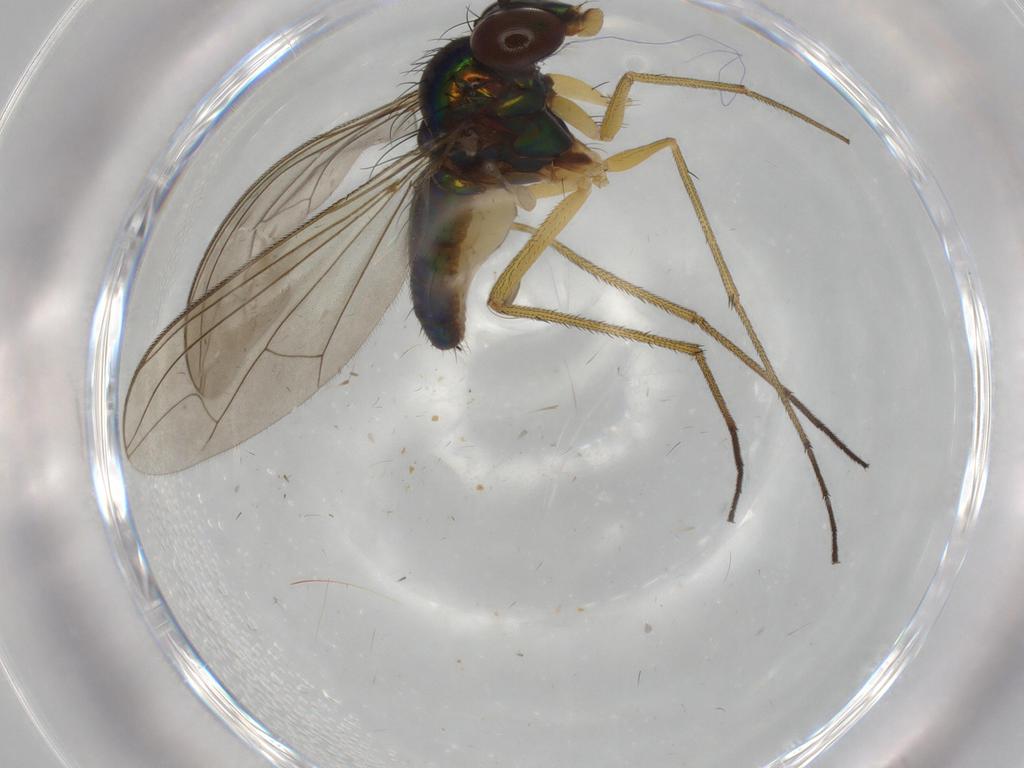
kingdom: Animalia
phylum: Arthropoda
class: Insecta
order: Diptera
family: Dolichopodidae
